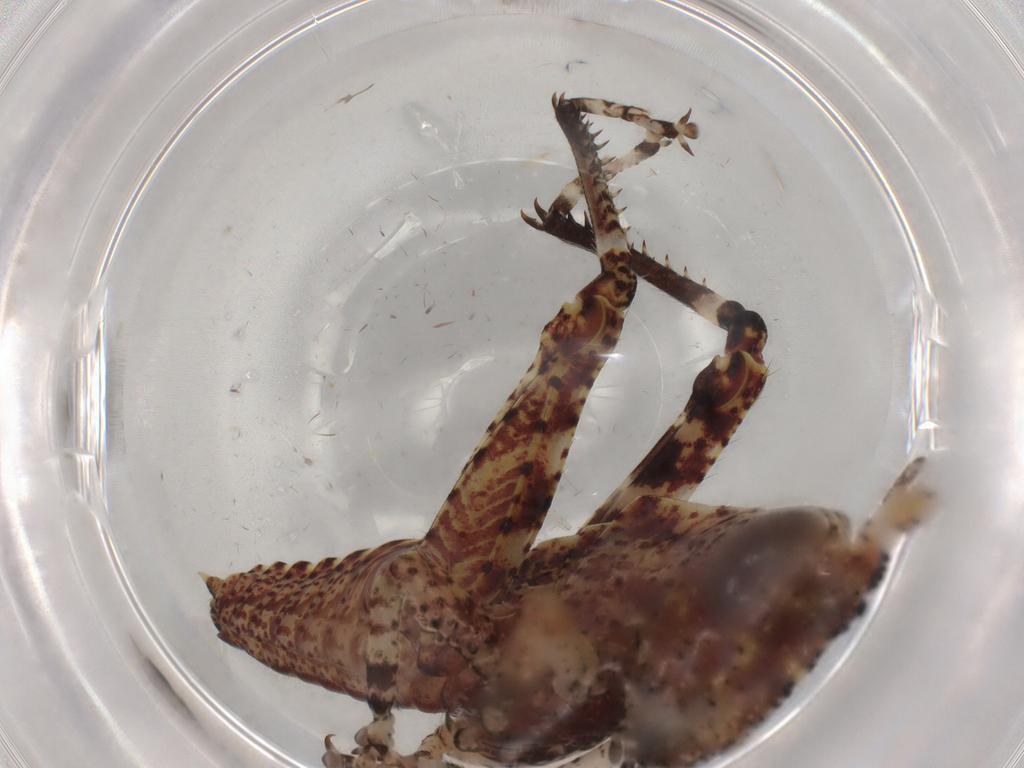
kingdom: Animalia
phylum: Arthropoda
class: Insecta
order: Orthoptera
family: Acrididae
